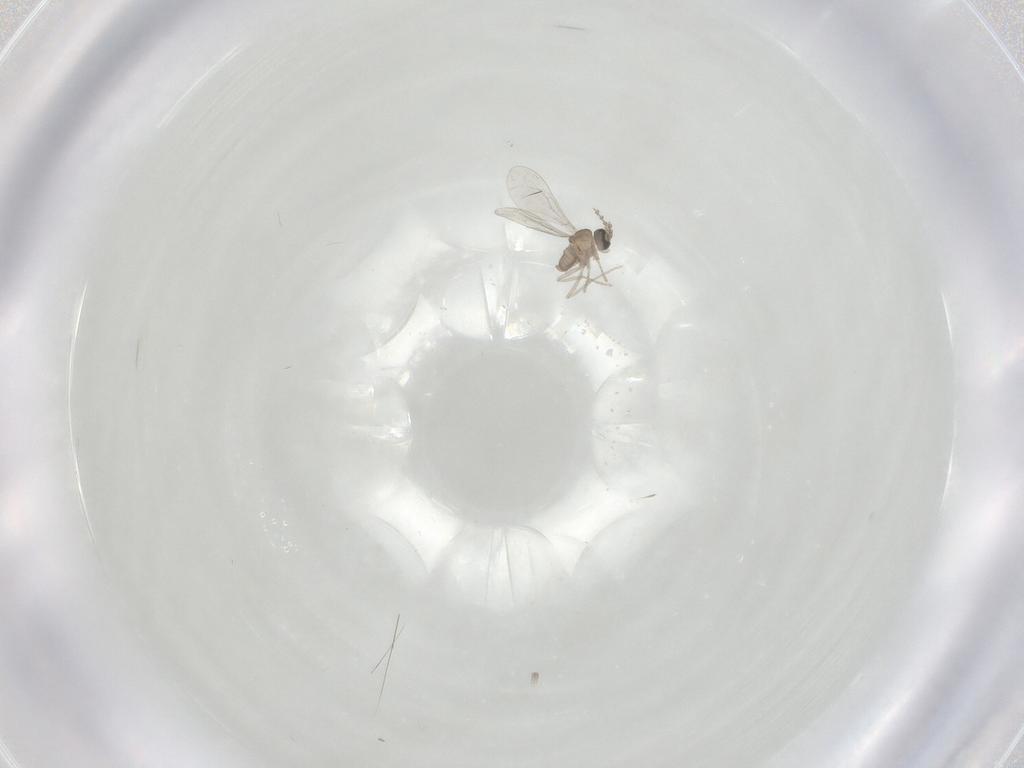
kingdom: Animalia
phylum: Arthropoda
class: Insecta
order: Diptera
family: Cecidomyiidae
